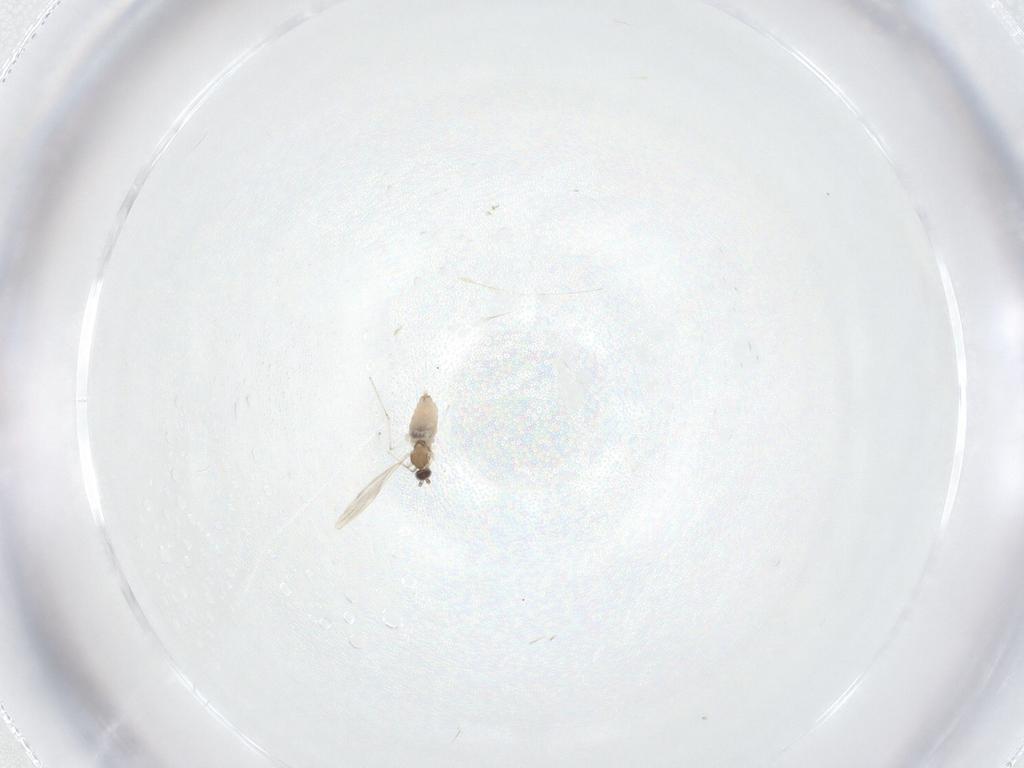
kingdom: Animalia
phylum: Arthropoda
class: Insecta
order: Diptera
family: Cecidomyiidae
